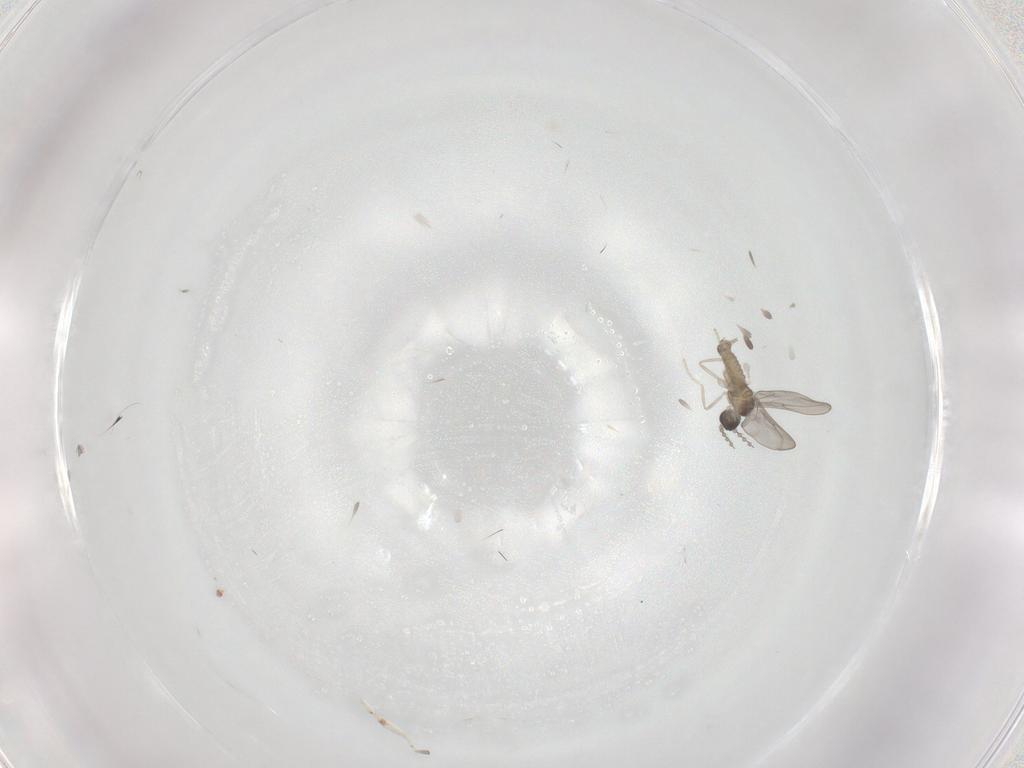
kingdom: Animalia
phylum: Arthropoda
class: Insecta
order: Diptera
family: Cecidomyiidae
